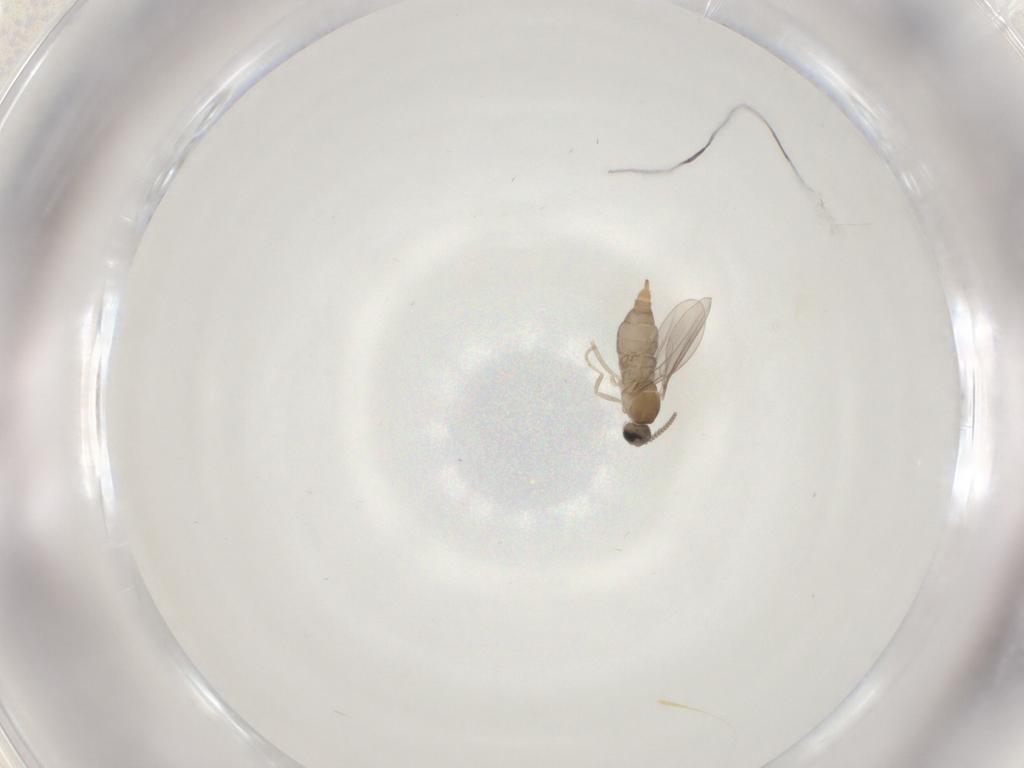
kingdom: Animalia
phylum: Arthropoda
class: Insecta
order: Diptera
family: Cecidomyiidae
